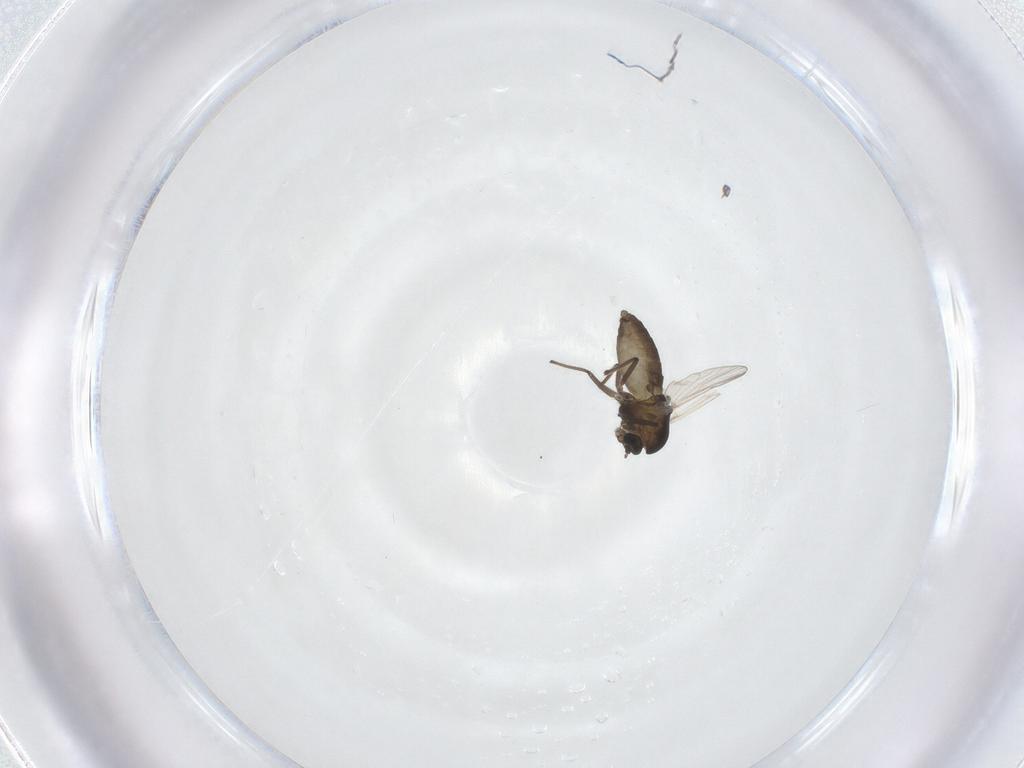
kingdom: Animalia
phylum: Arthropoda
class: Insecta
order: Diptera
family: Chironomidae
